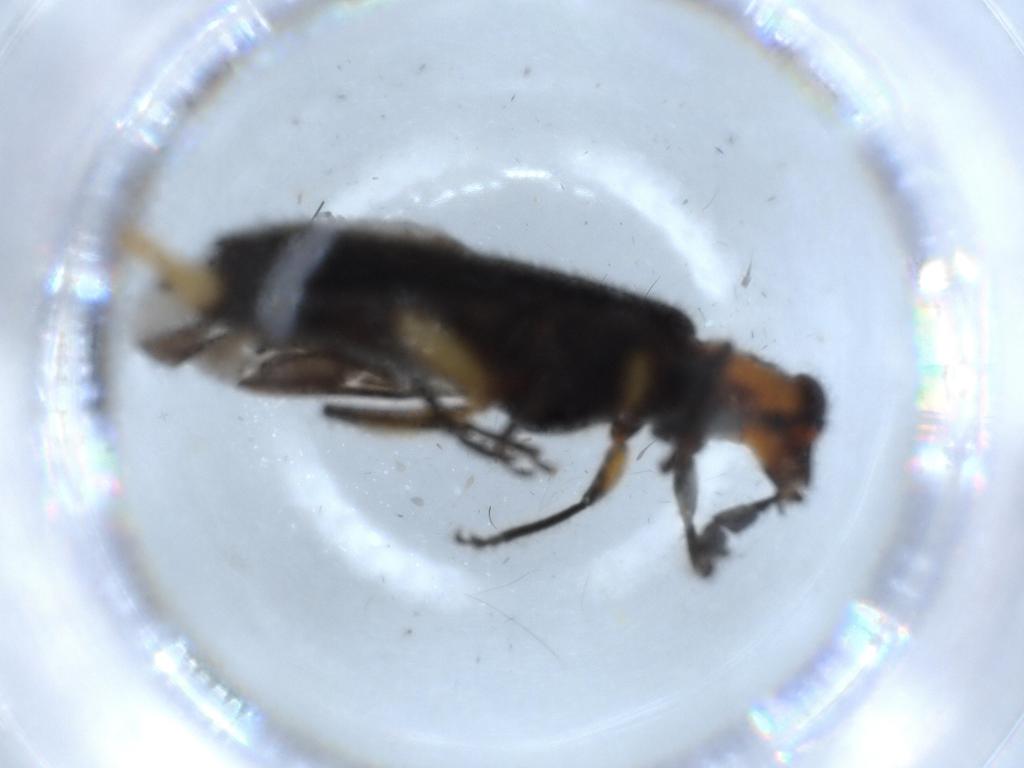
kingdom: Animalia
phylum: Arthropoda
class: Insecta
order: Coleoptera
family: Cleridae
